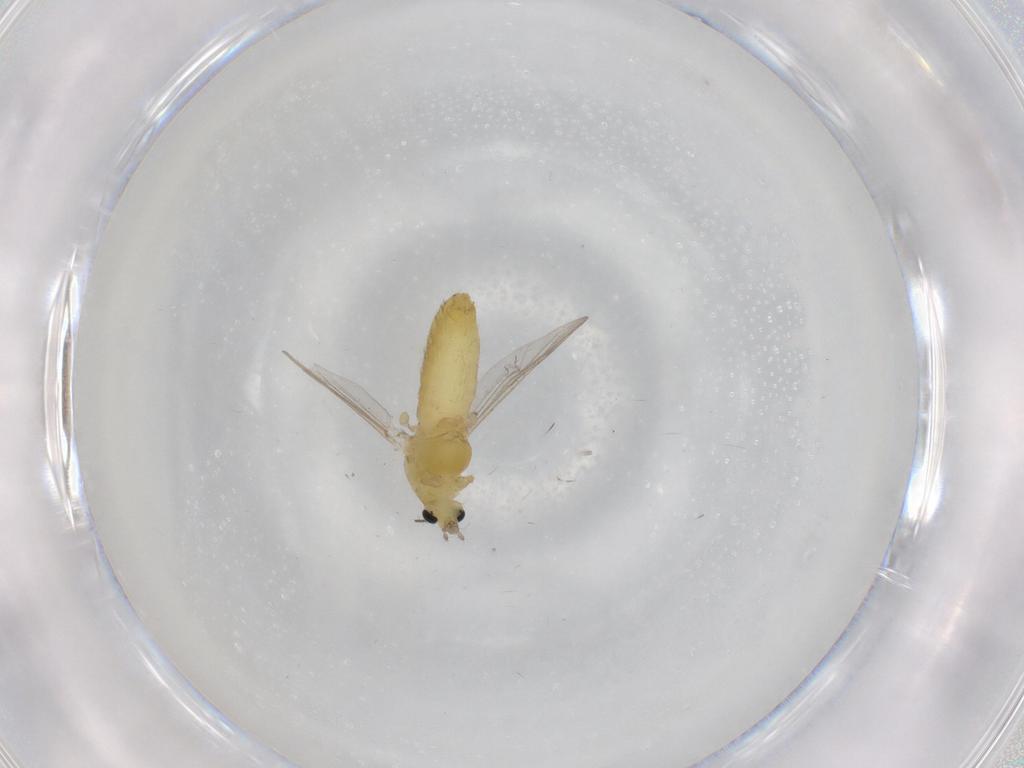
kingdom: Animalia
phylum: Arthropoda
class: Insecta
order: Diptera
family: Chironomidae
